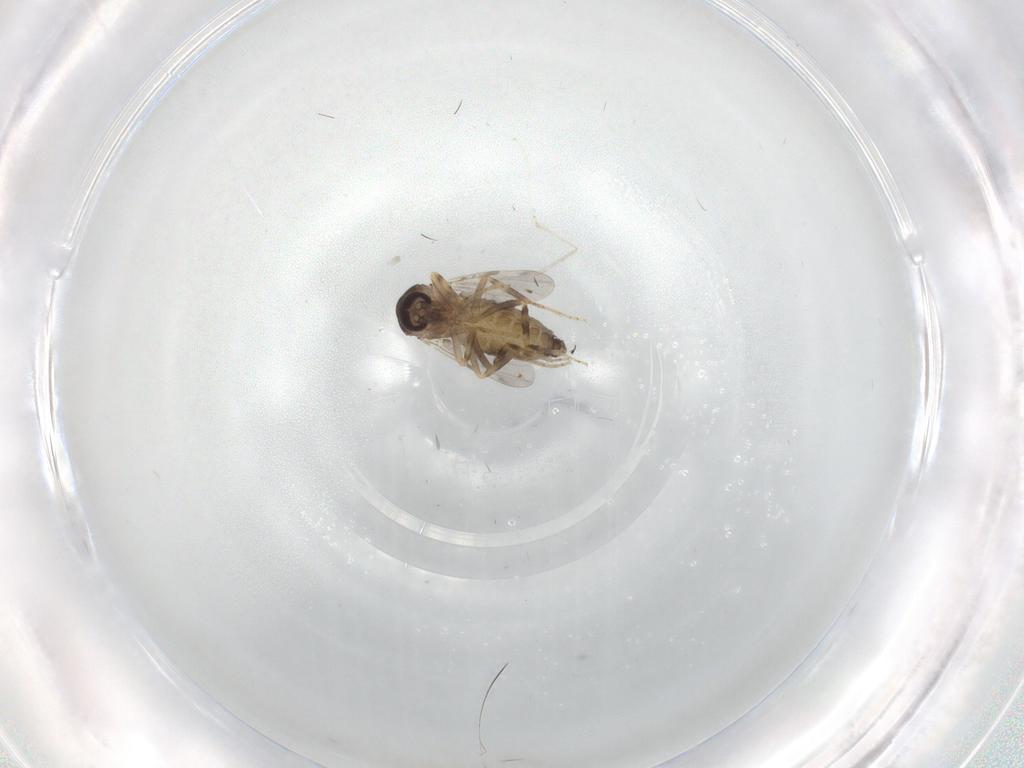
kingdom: Animalia
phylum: Arthropoda
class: Insecta
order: Diptera
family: Ceratopogonidae
